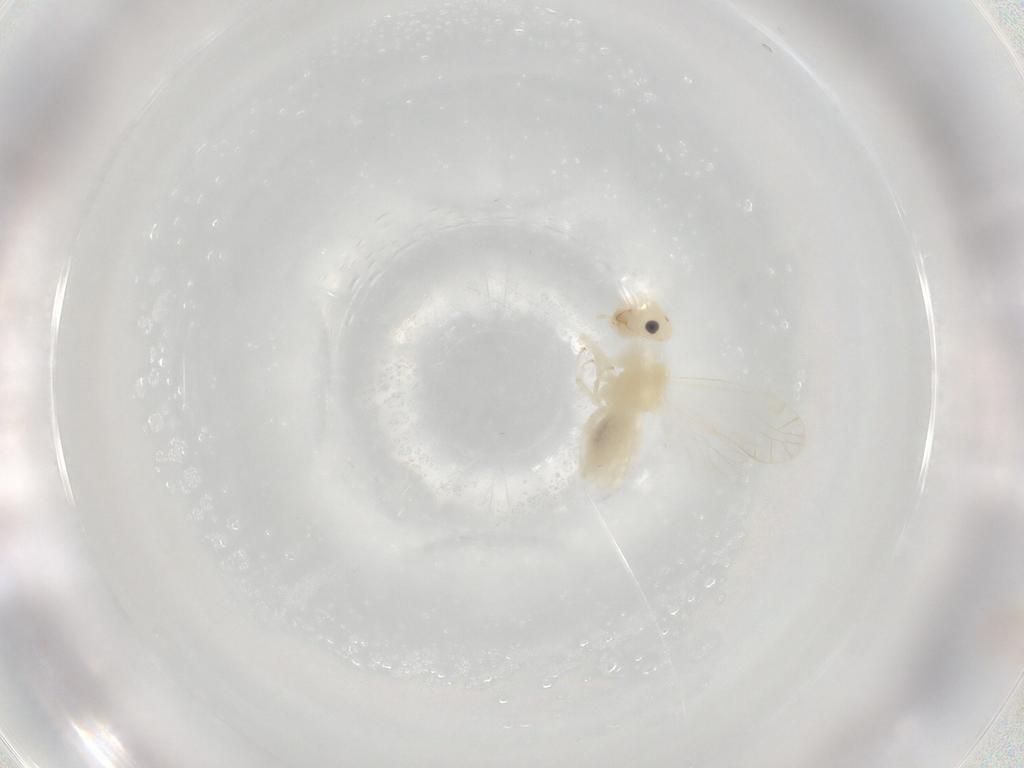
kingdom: Animalia
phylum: Arthropoda
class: Insecta
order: Psocodea
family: Lachesillidae
